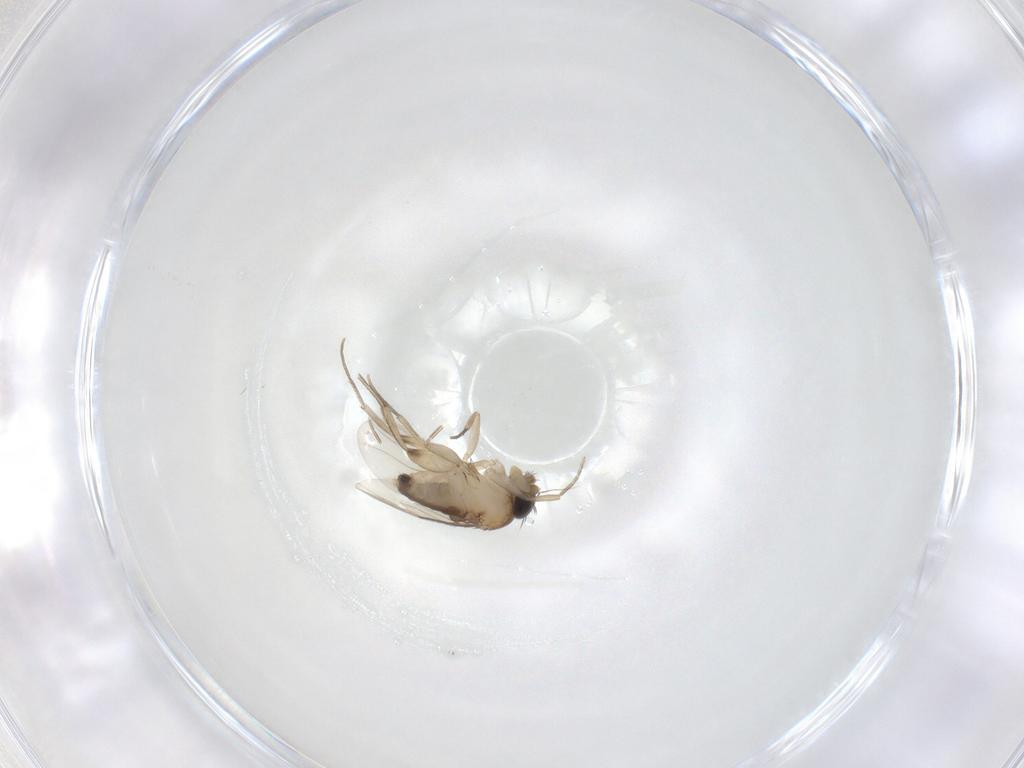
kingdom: Animalia
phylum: Arthropoda
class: Insecta
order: Diptera
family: Phoridae
